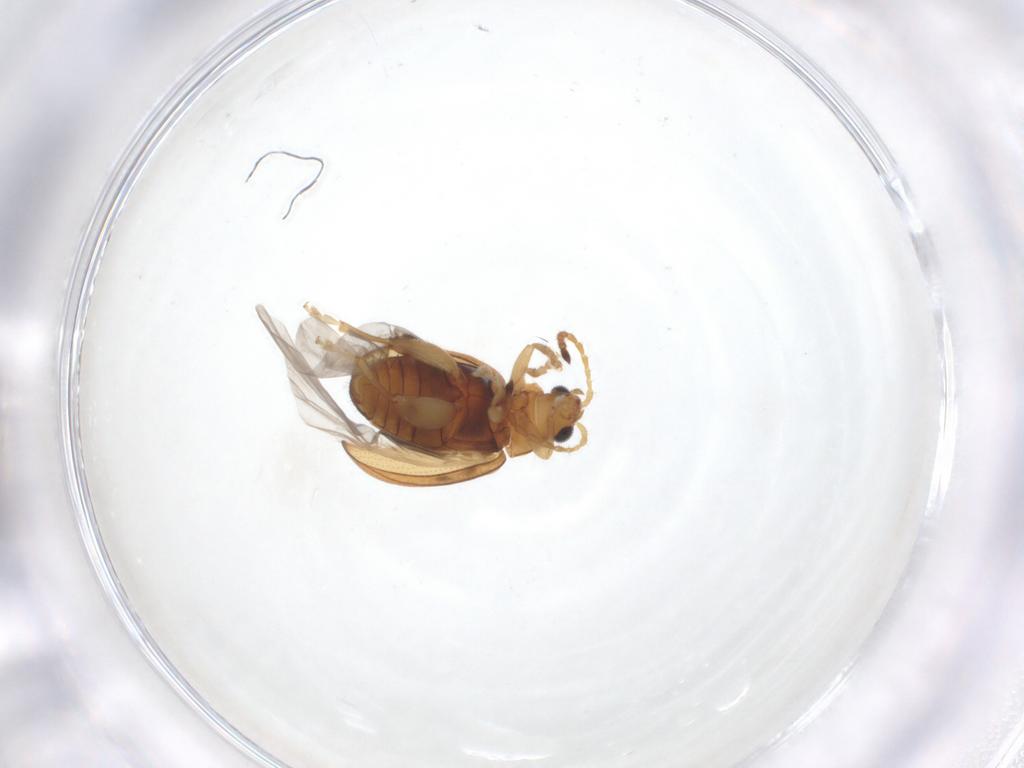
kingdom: Animalia
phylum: Arthropoda
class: Insecta
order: Coleoptera
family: Chrysomelidae
